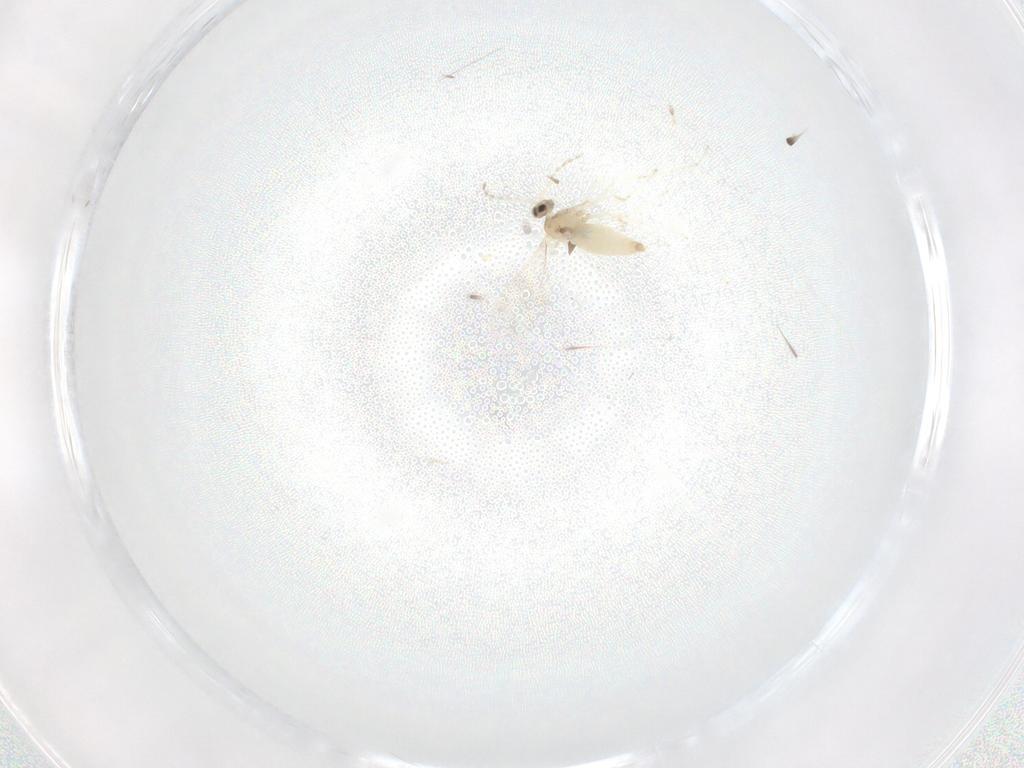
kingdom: Animalia
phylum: Arthropoda
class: Insecta
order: Diptera
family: Cecidomyiidae
